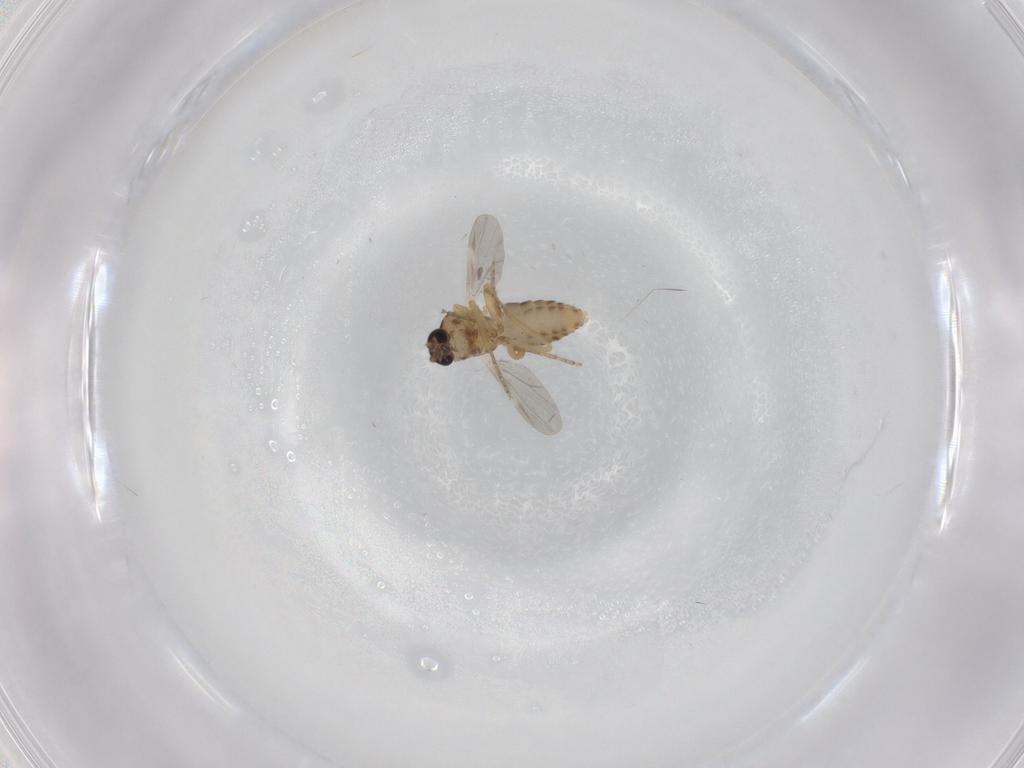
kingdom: Animalia
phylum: Arthropoda
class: Insecta
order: Diptera
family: Ceratopogonidae
